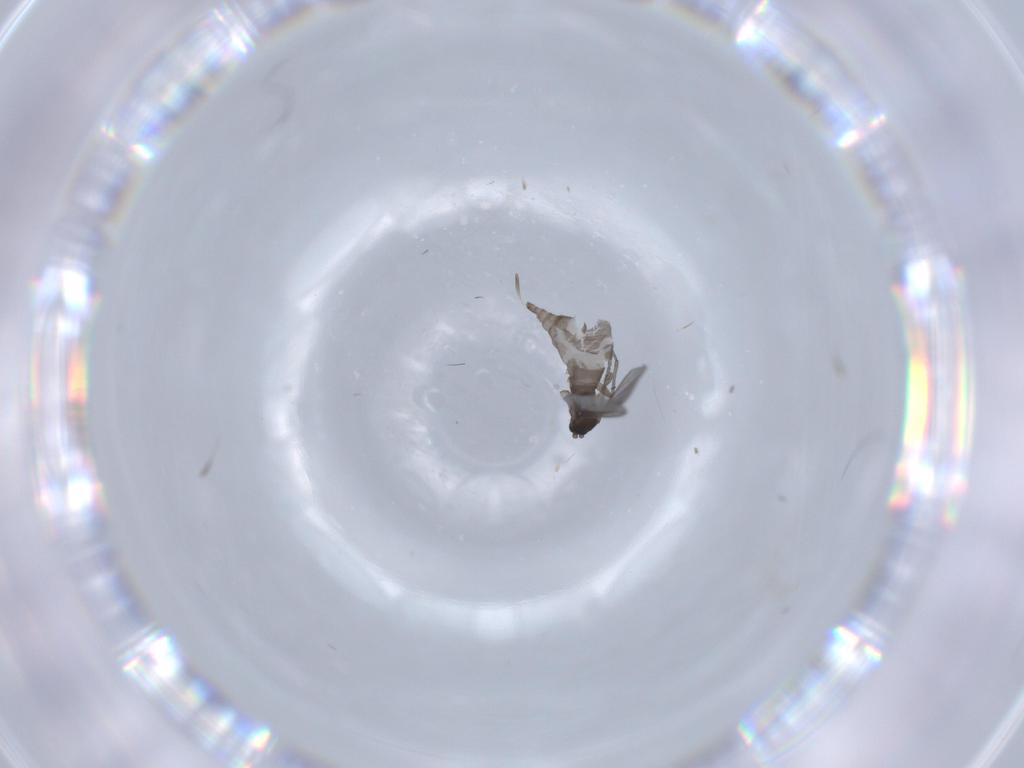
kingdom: Animalia
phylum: Arthropoda
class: Insecta
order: Diptera
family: Sciaridae
